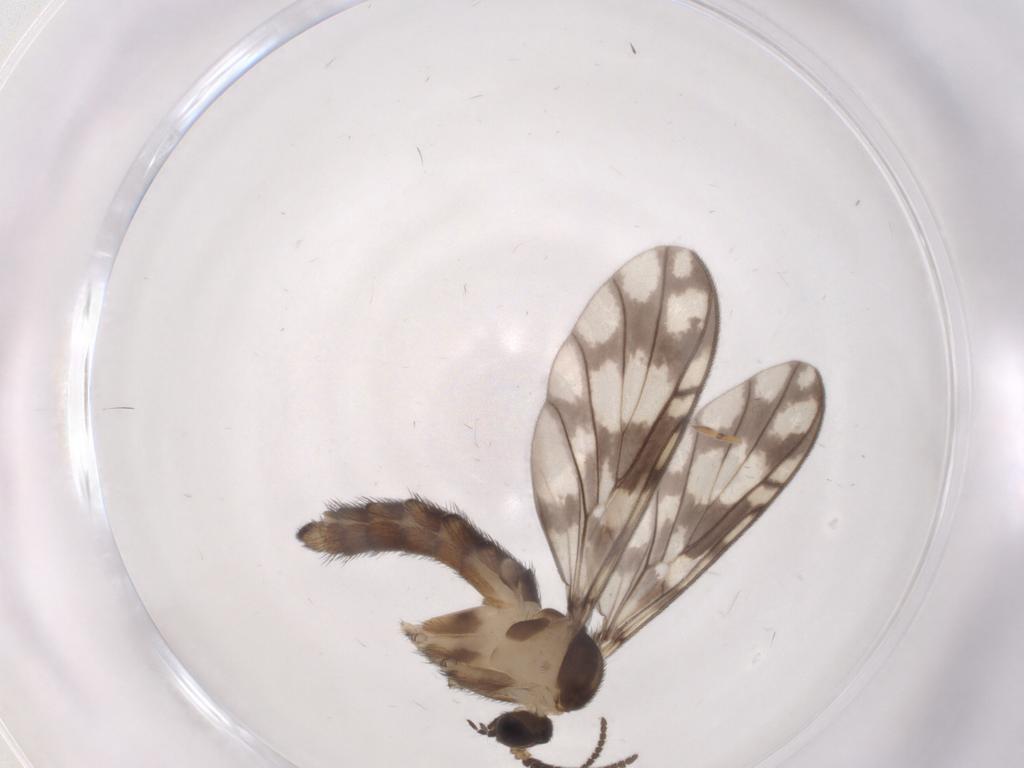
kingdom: Animalia
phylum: Arthropoda
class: Insecta
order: Diptera
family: Keroplatidae
